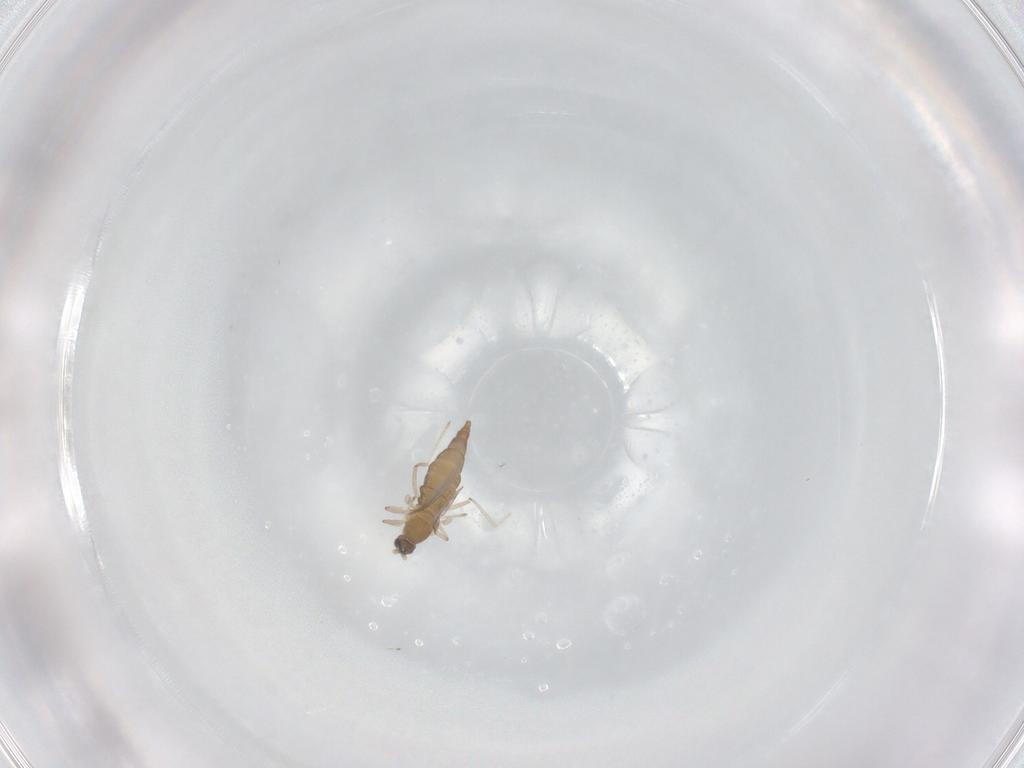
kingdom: Animalia
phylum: Arthropoda
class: Insecta
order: Diptera
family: Cecidomyiidae
